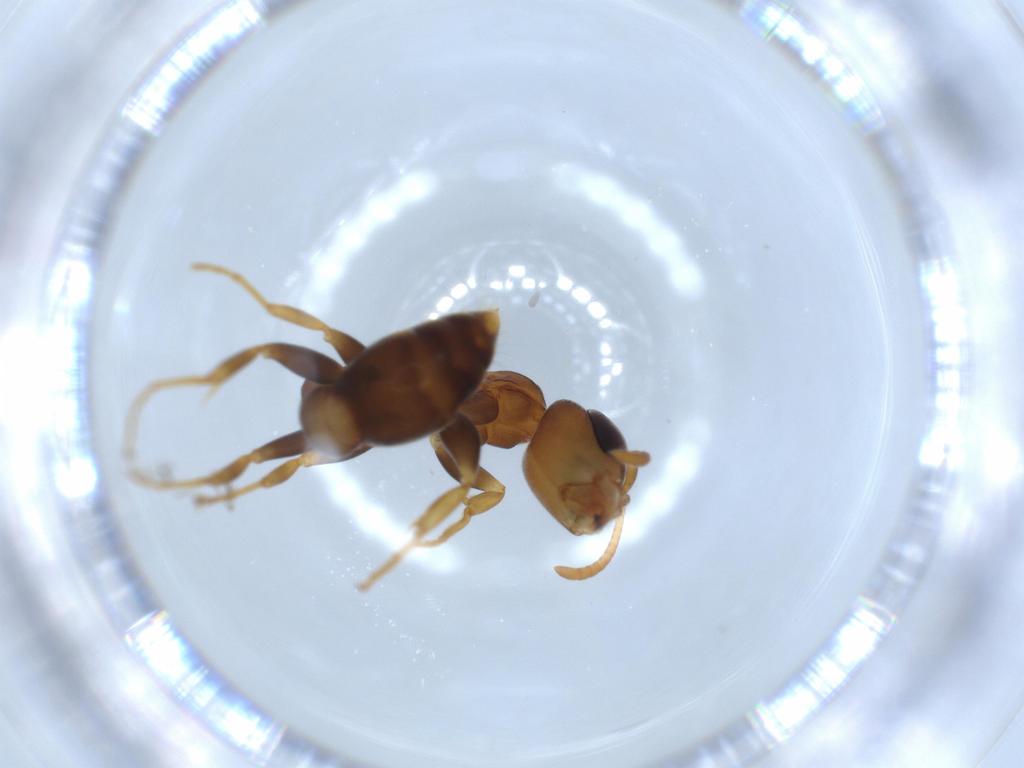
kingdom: Animalia
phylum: Arthropoda
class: Insecta
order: Hymenoptera
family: Formicidae
